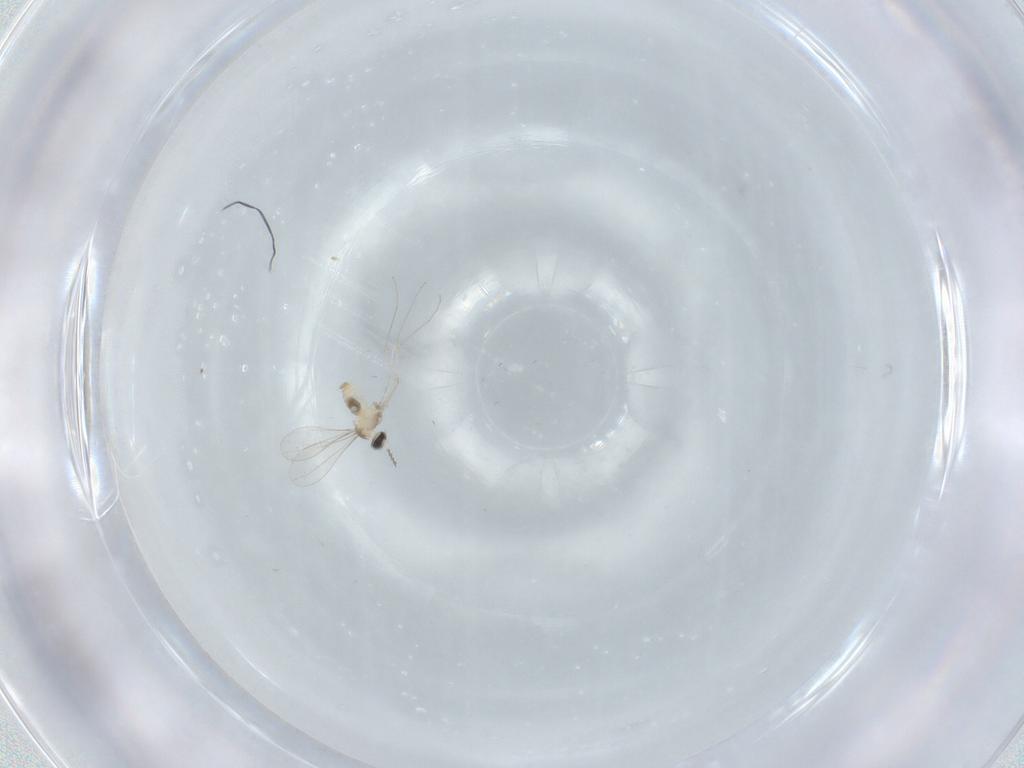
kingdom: Animalia
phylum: Arthropoda
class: Insecta
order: Diptera
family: Cecidomyiidae
